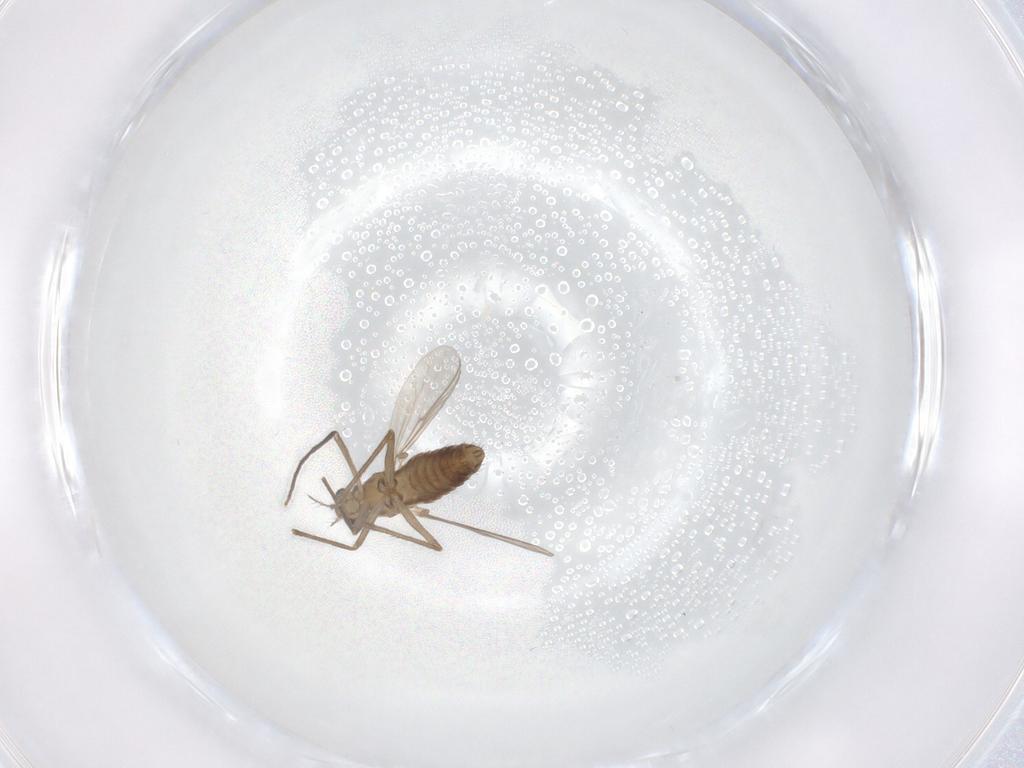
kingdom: Animalia
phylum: Arthropoda
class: Insecta
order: Diptera
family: Chironomidae
